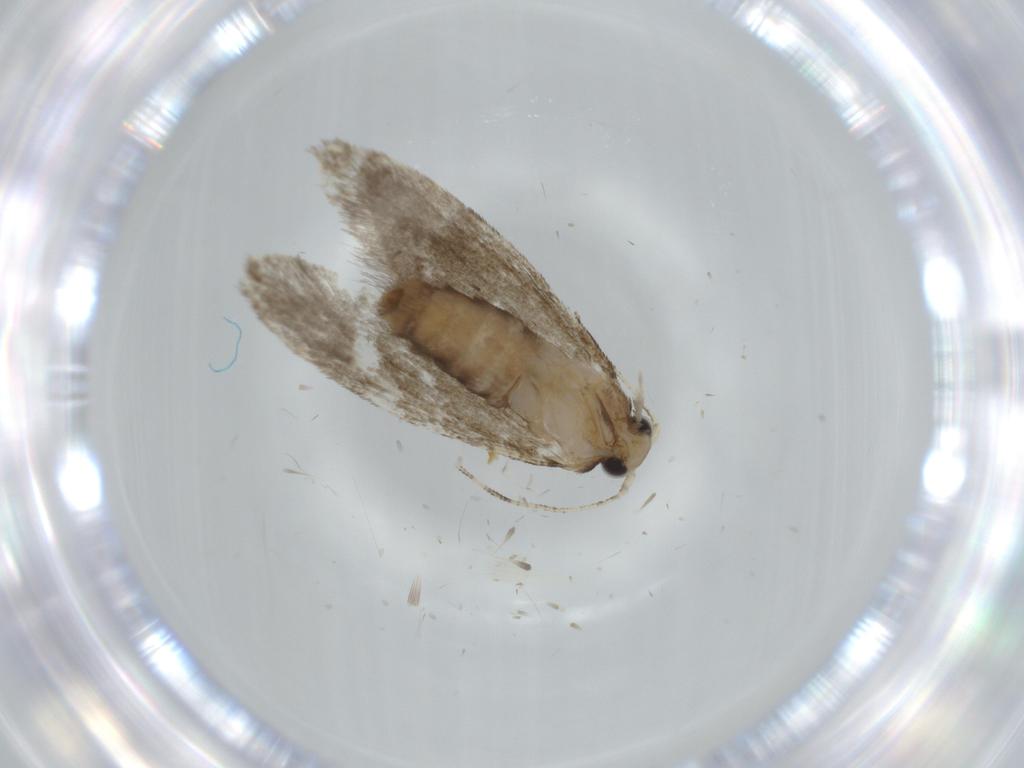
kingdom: Animalia
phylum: Arthropoda
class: Insecta
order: Lepidoptera
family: Tineidae
